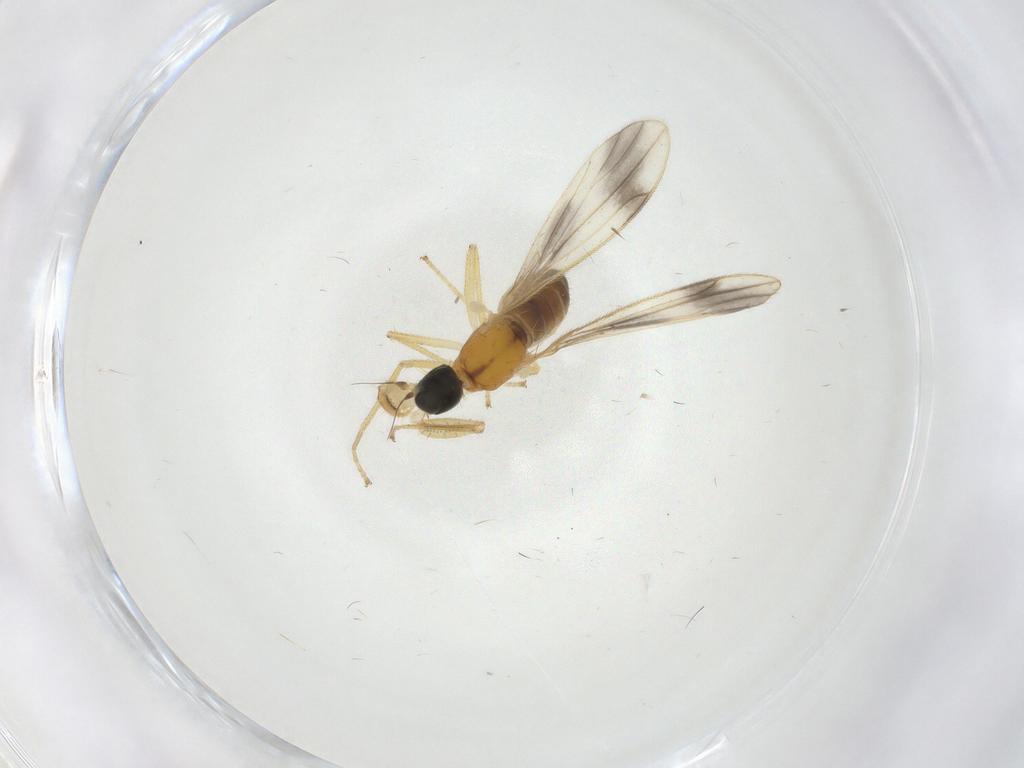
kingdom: Animalia
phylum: Arthropoda
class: Insecta
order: Diptera
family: Empididae
